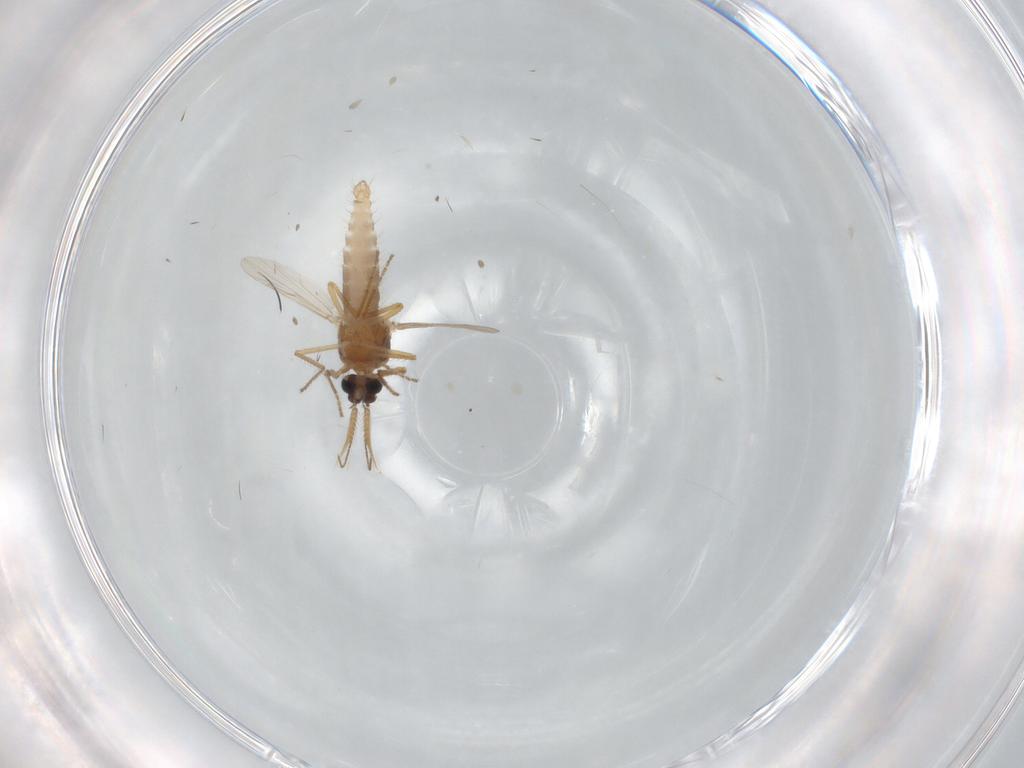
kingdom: Animalia
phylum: Arthropoda
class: Insecta
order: Diptera
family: Ceratopogonidae
